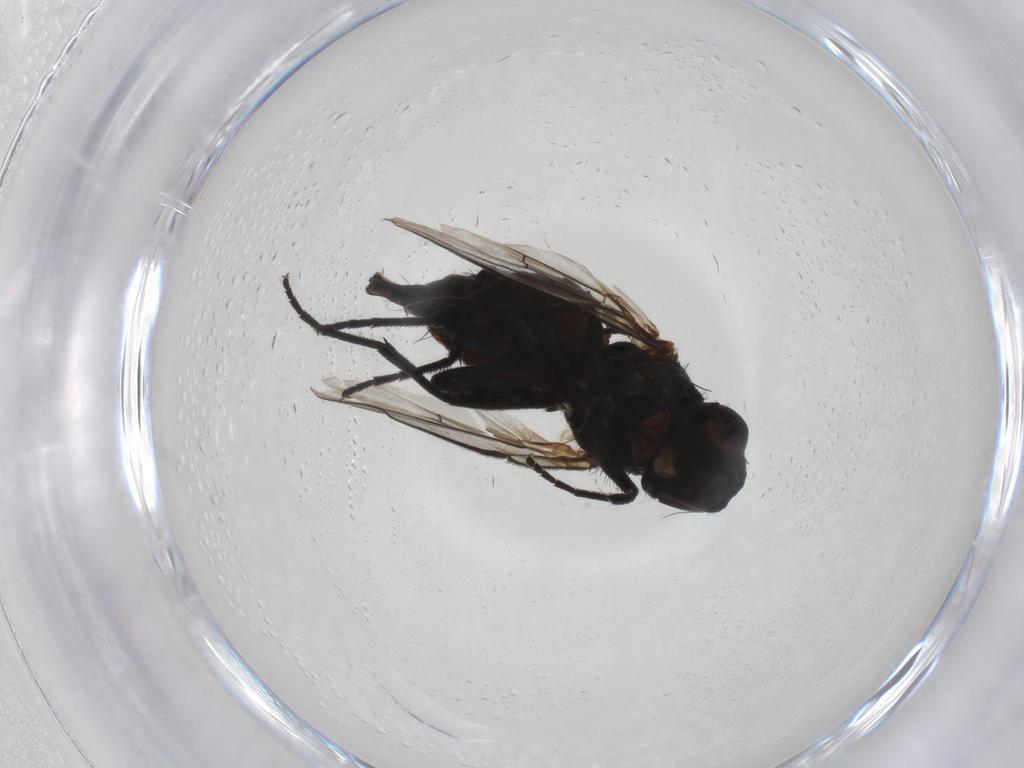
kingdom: Animalia
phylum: Arthropoda
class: Insecta
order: Diptera
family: Agromyzidae
